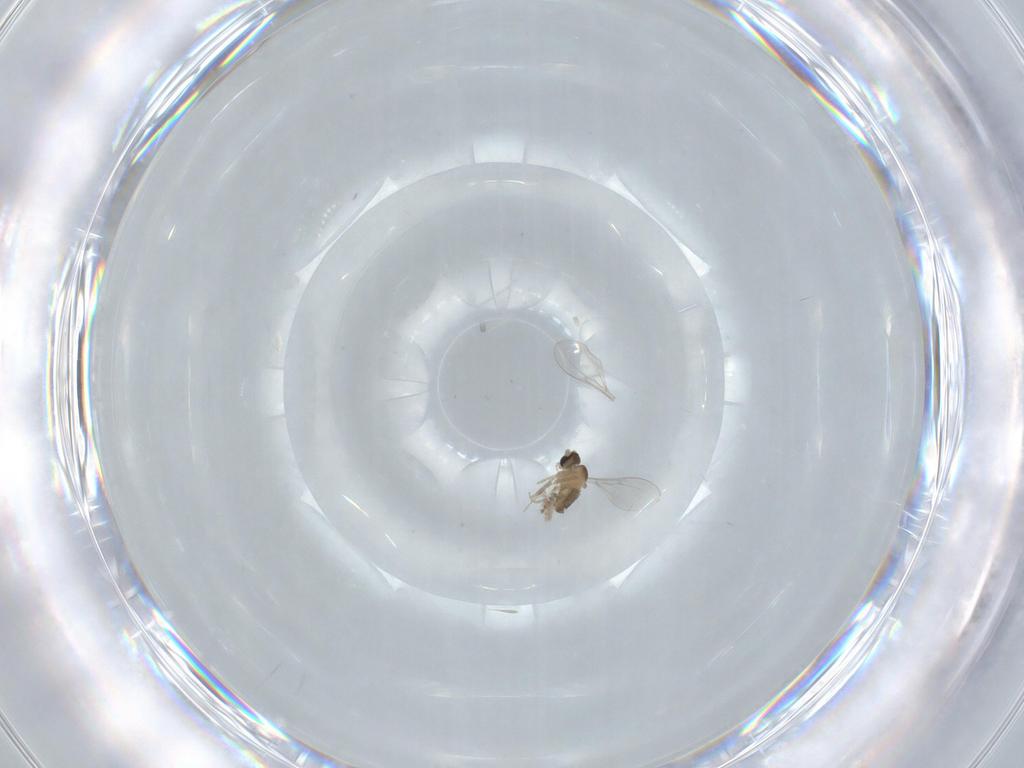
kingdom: Animalia
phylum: Arthropoda
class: Insecta
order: Diptera
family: Cecidomyiidae
